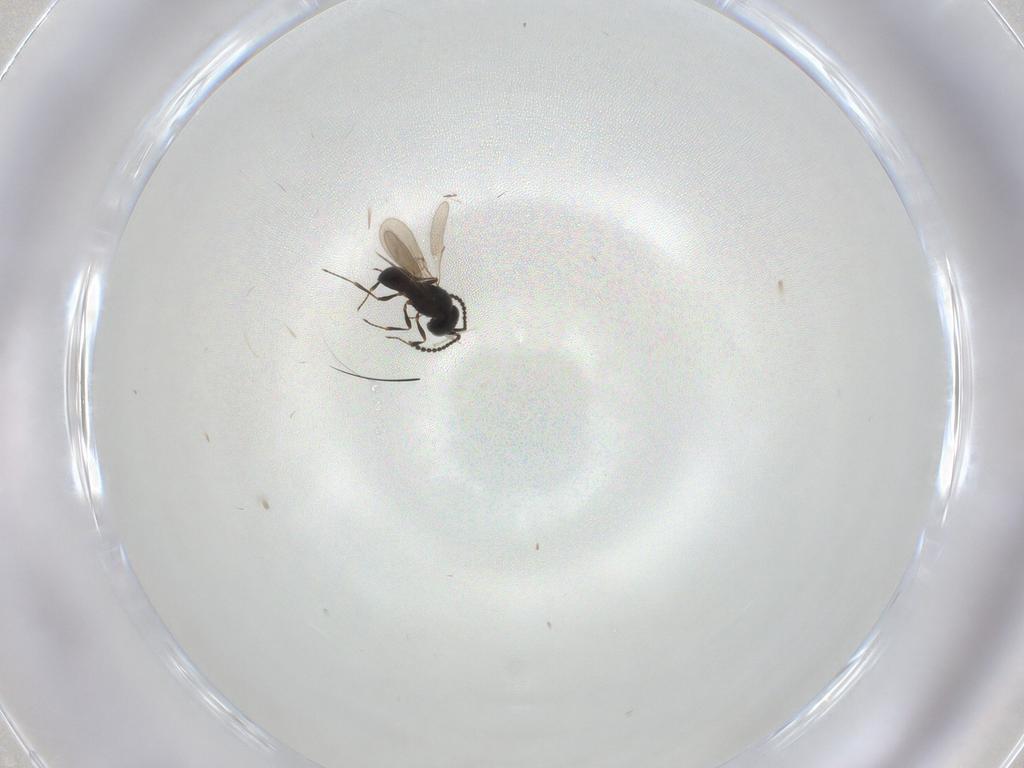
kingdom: Animalia
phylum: Arthropoda
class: Insecta
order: Hymenoptera
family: Scelionidae
